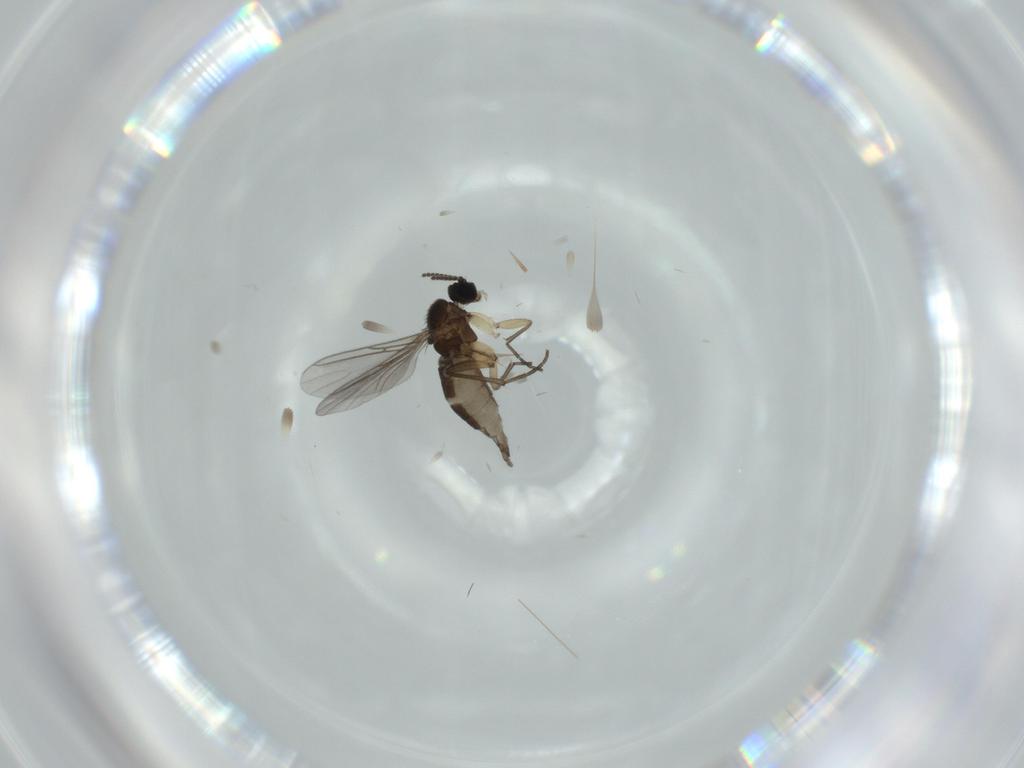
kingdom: Animalia
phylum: Arthropoda
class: Insecta
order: Diptera
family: Sciaridae
